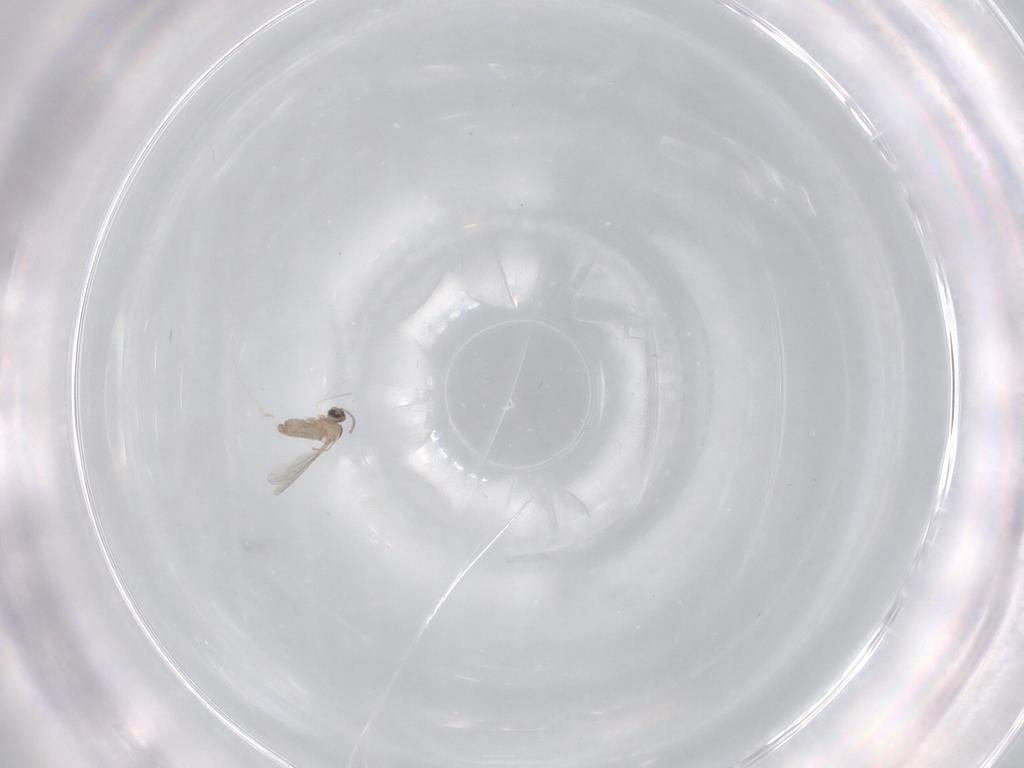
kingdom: Animalia
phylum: Arthropoda
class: Insecta
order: Diptera
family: Cecidomyiidae
